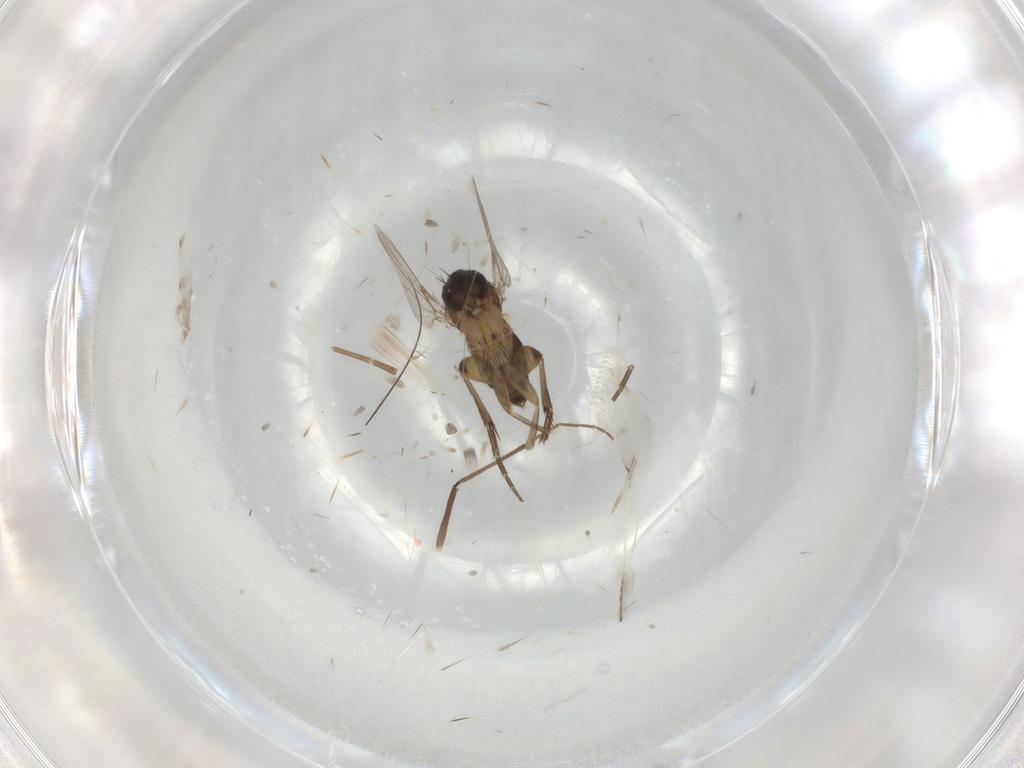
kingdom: Animalia
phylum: Arthropoda
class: Insecta
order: Diptera
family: Phoridae
